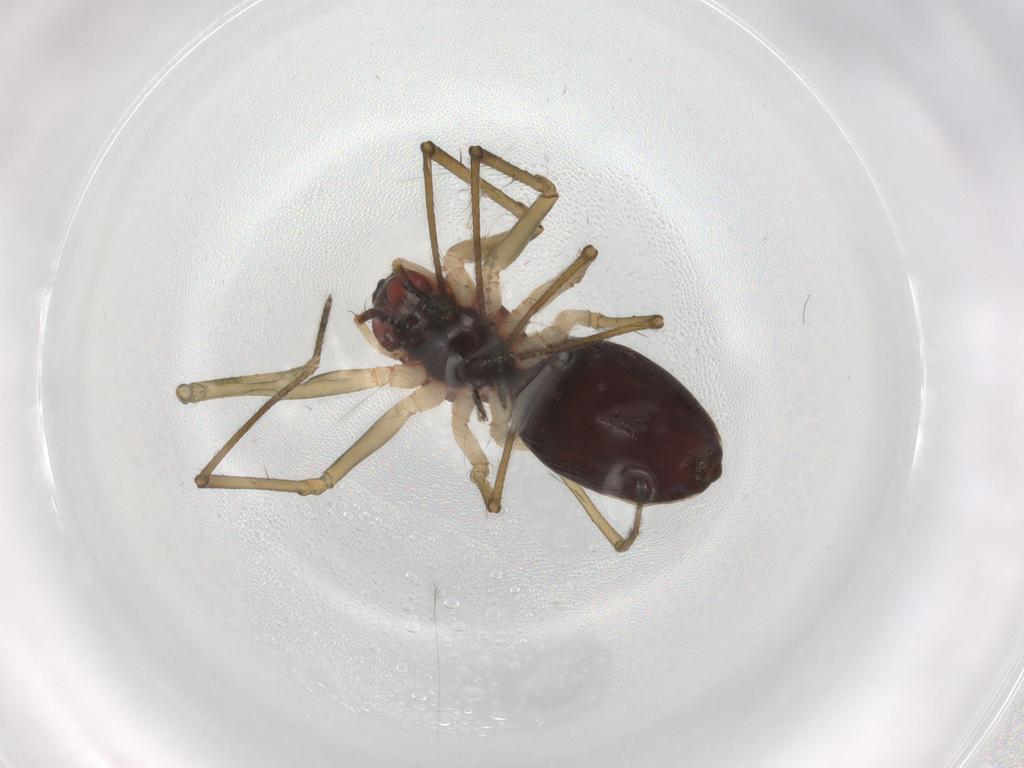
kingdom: Animalia
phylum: Arthropoda
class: Arachnida
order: Araneae
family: Linyphiidae
